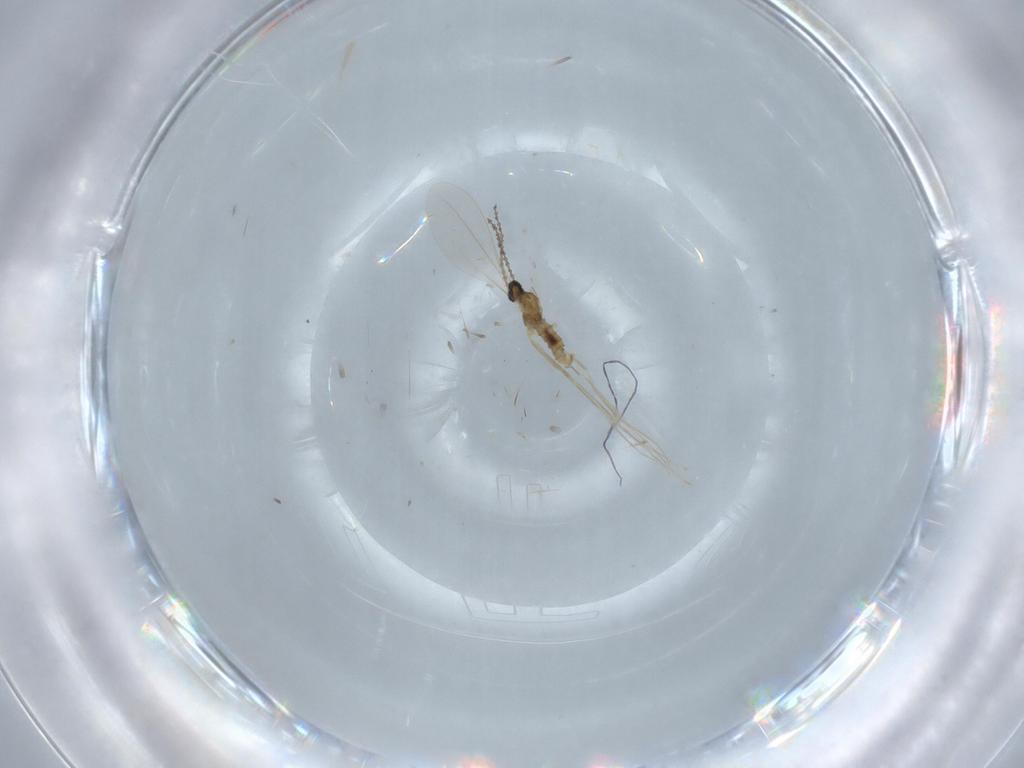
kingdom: Animalia
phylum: Arthropoda
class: Insecta
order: Diptera
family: Cecidomyiidae
